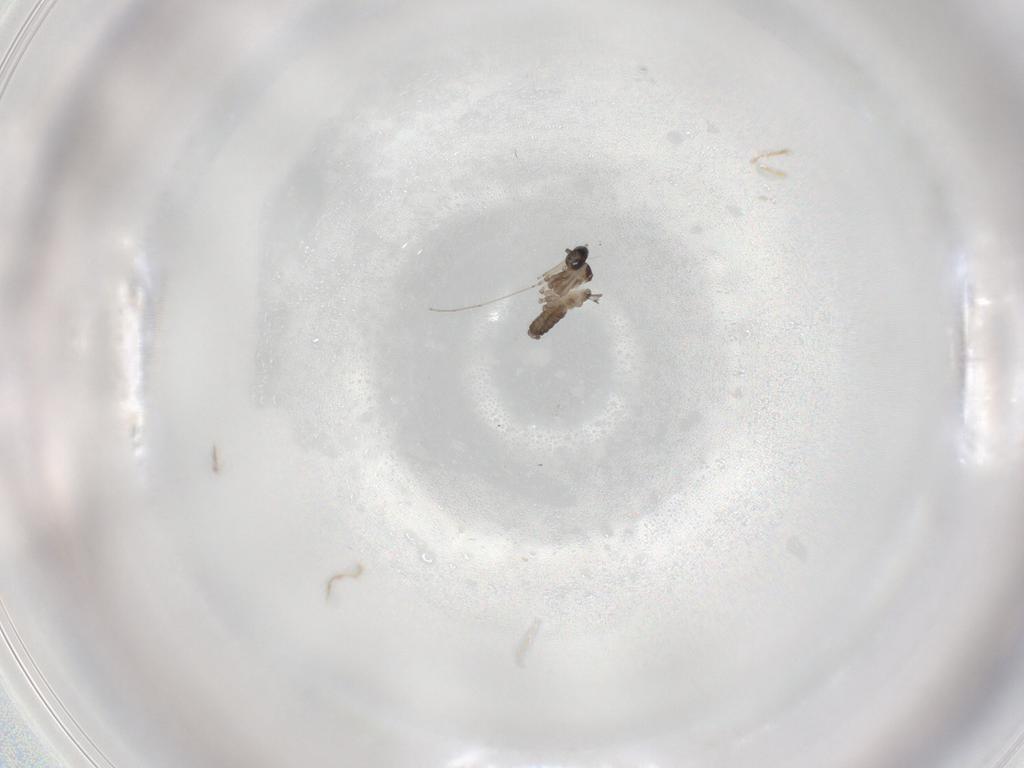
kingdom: Animalia
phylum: Arthropoda
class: Insecta
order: Diptera
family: Cecidomyiidae
